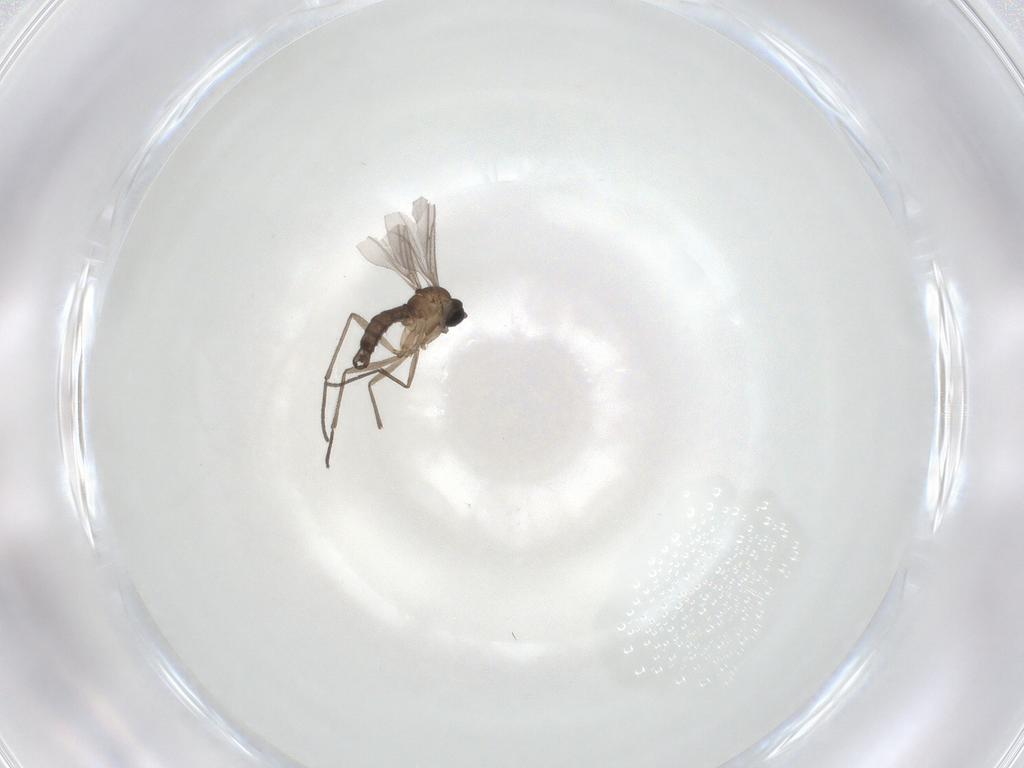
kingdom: Animalia
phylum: Arthropoda
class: Insecta
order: Diptera
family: Sciaridae
